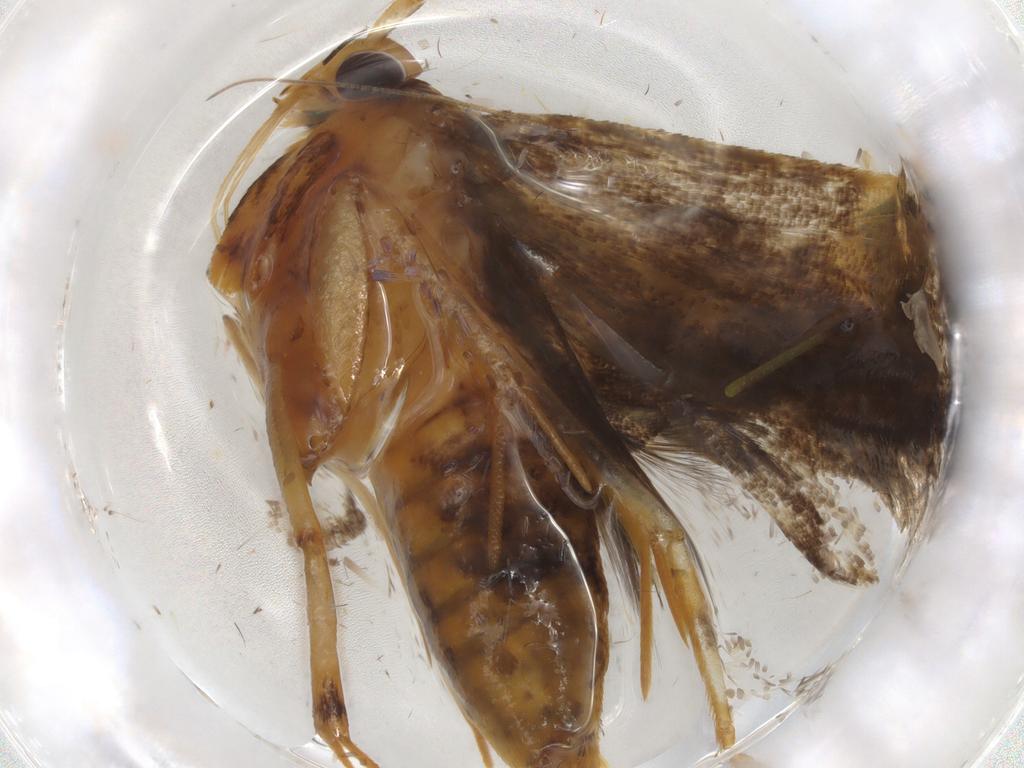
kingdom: Animalia
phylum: Arthropoda
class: Insecta
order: Lepidoptera
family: Lecithoceridae
